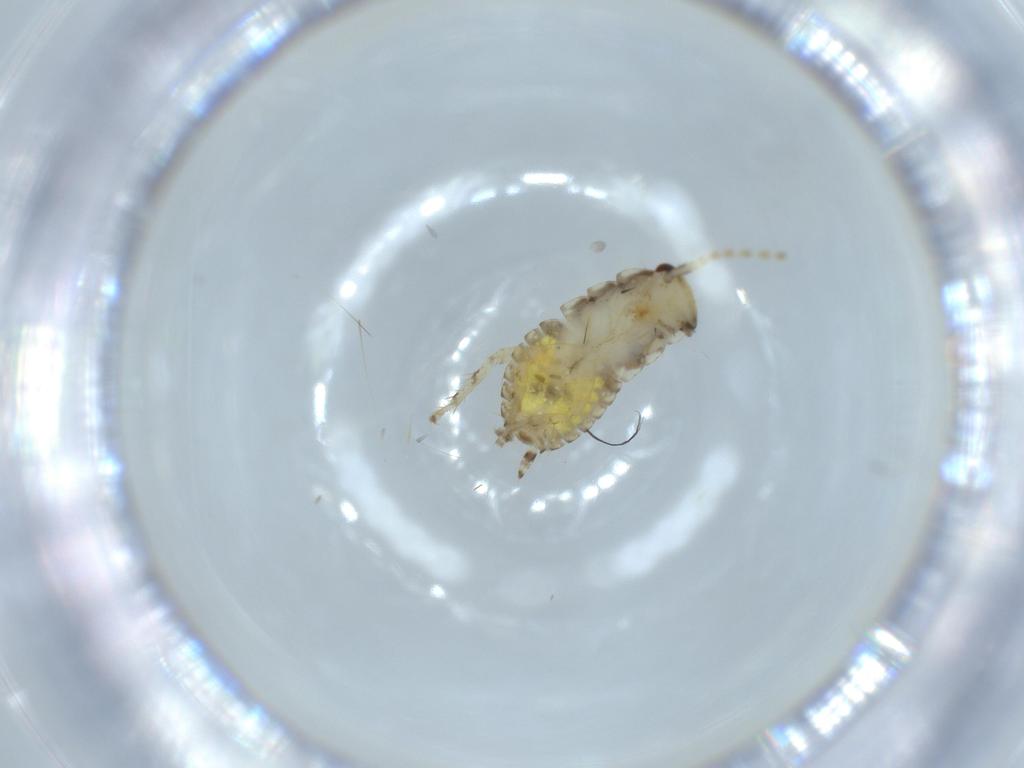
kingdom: Animalia
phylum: Arthropoda
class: Insecta
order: Blattodea
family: Ectobiidae
